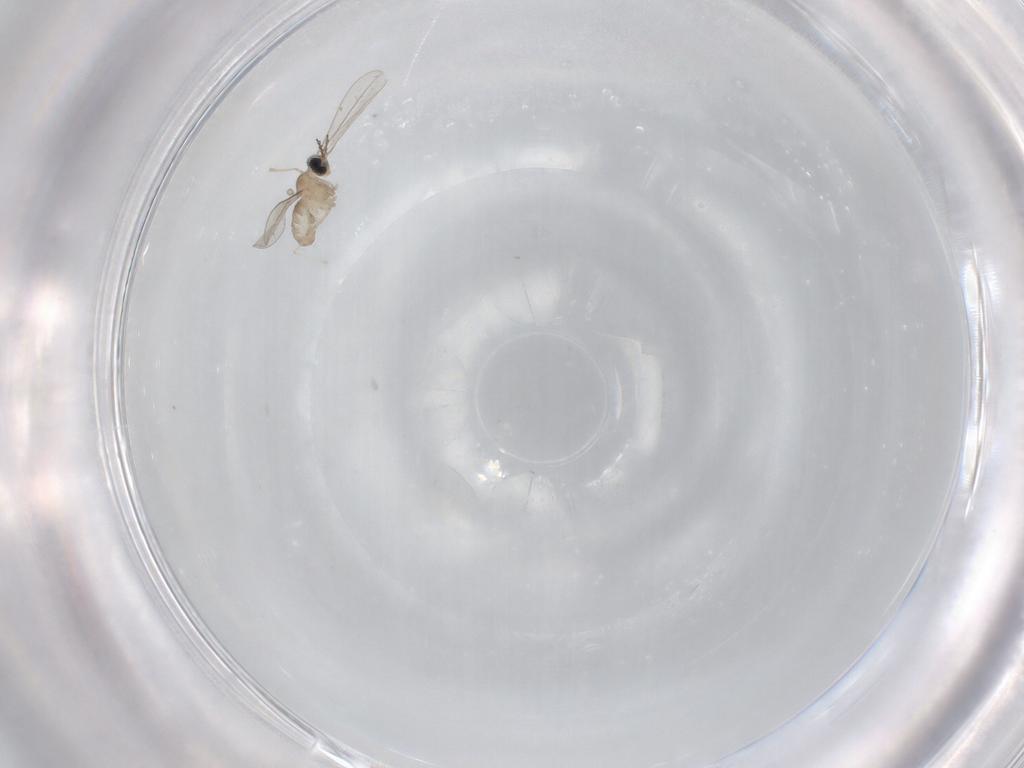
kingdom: Animalia
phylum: Arthropoda
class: Insecta
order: Diptera
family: Cecidomyiidae
